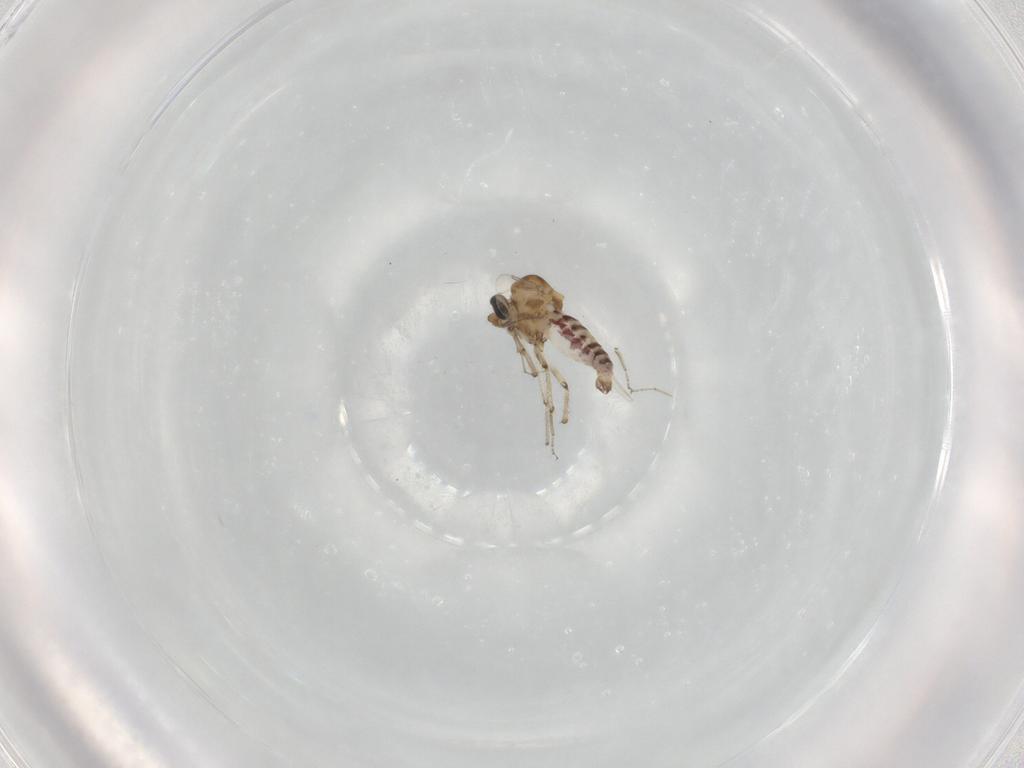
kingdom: Animalia
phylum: Arthropoda
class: Insecta
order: Diptera
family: Ceratopogonidae
